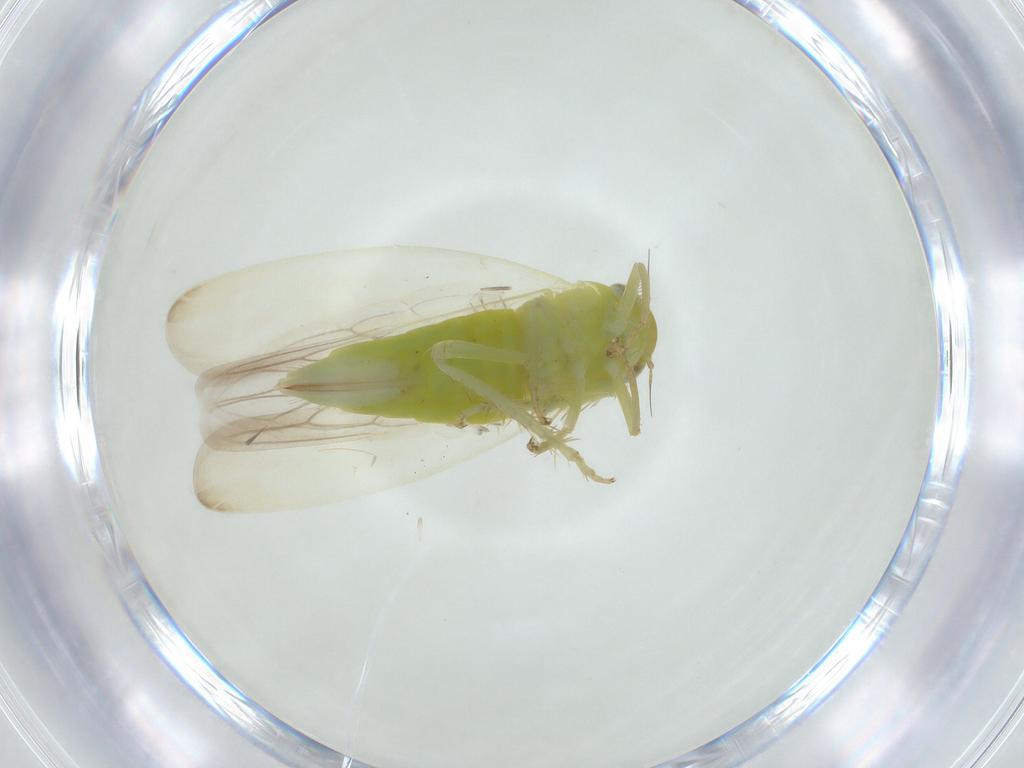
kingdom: Animalia
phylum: Arthropoda
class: Insecta
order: Hemiptera
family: Cicadellidae
